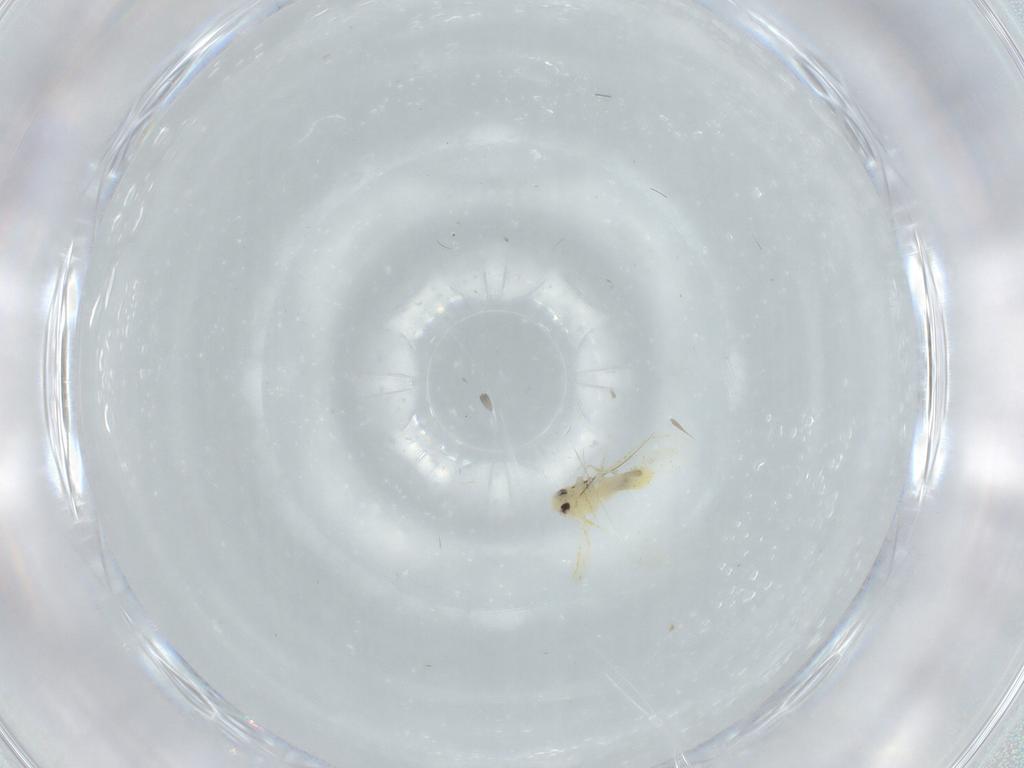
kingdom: Animalia
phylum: Arthropoda
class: Insecta
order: Hemiptera
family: Aleyrodidae
